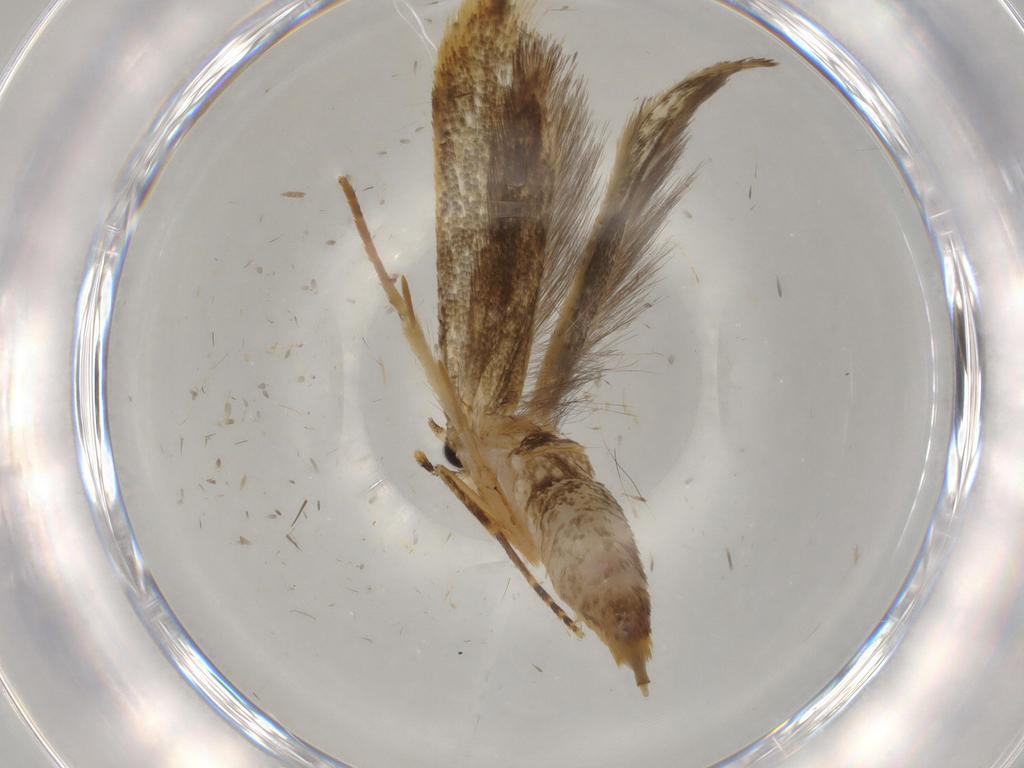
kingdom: Animalia
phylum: Arthropoda
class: Insecta
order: Lepidoptera
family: Tineidae
